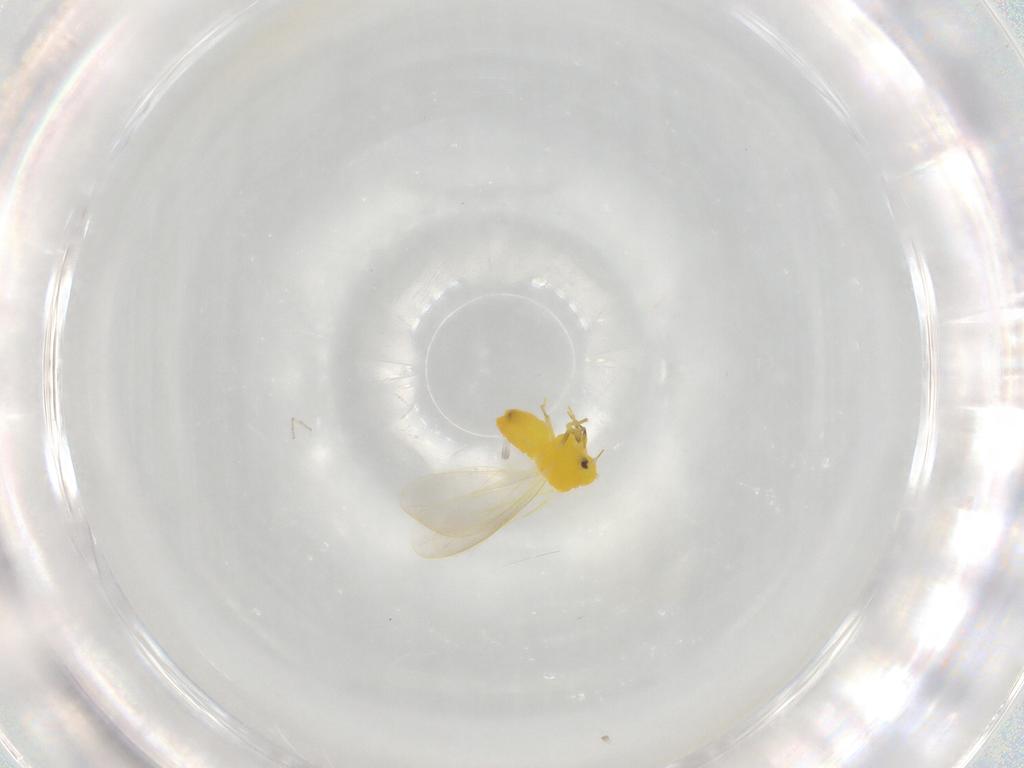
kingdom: Animalia
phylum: Arthropoda
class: Insecta
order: Hemiptera
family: Aleyrodidae
